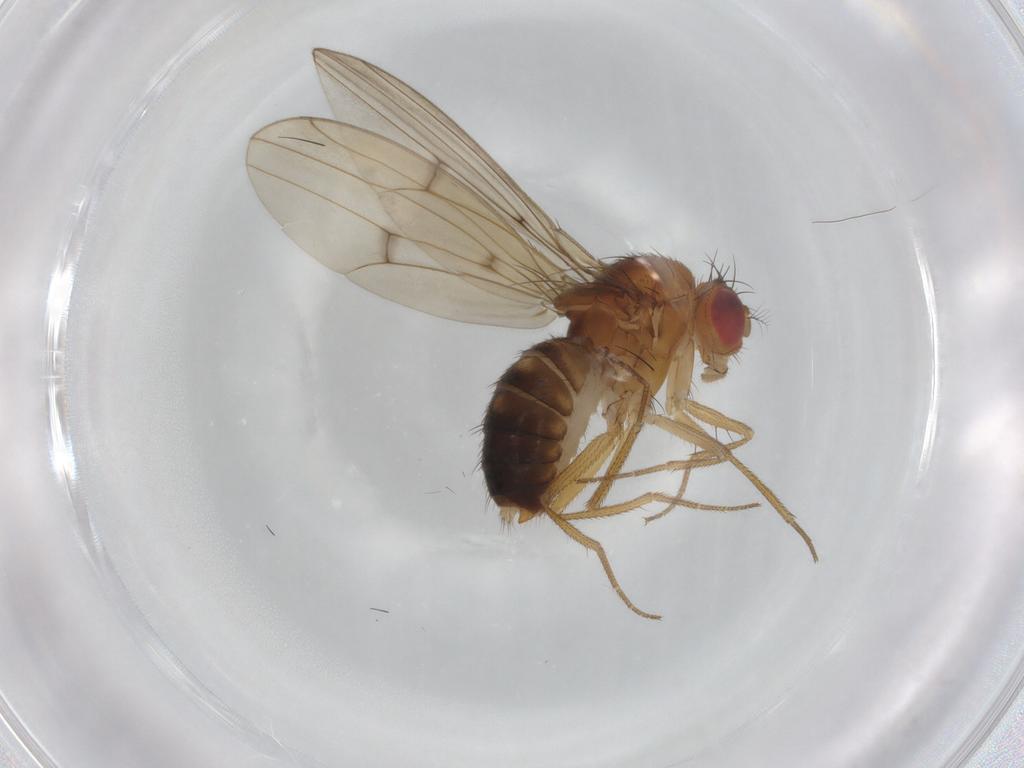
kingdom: Animalia
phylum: Arthropoda
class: Insecta
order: Diptera
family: Drosophilidae
